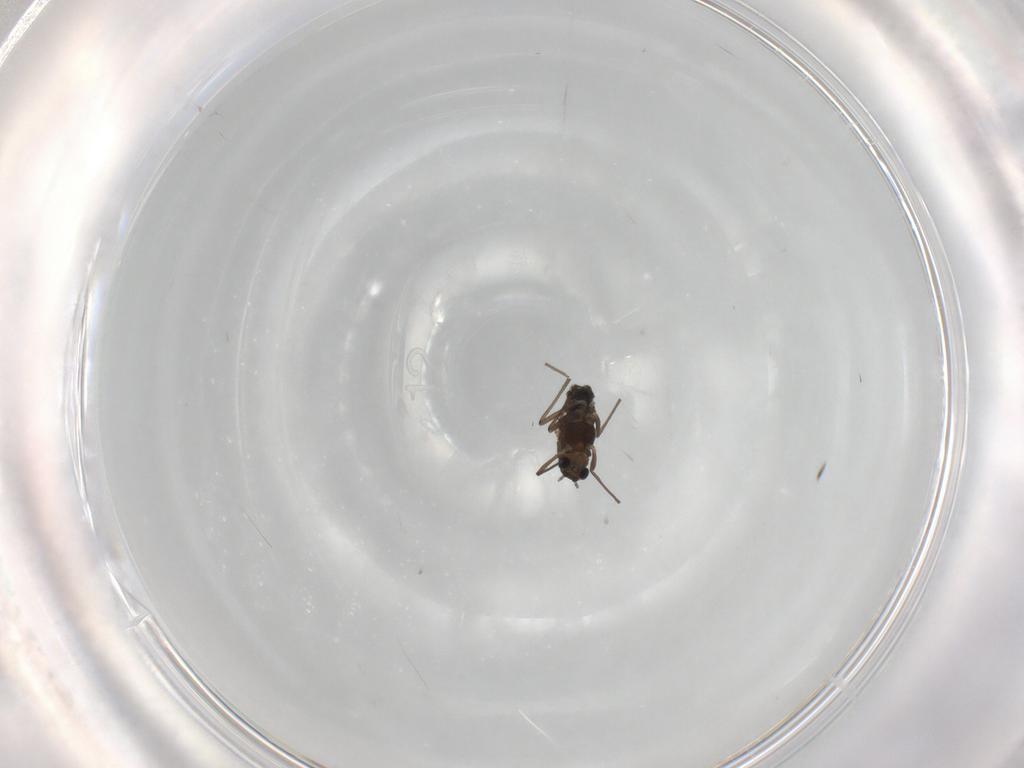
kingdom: Animalia
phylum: Arthropoda
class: Insecta
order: Diptera
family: Chironomidae
